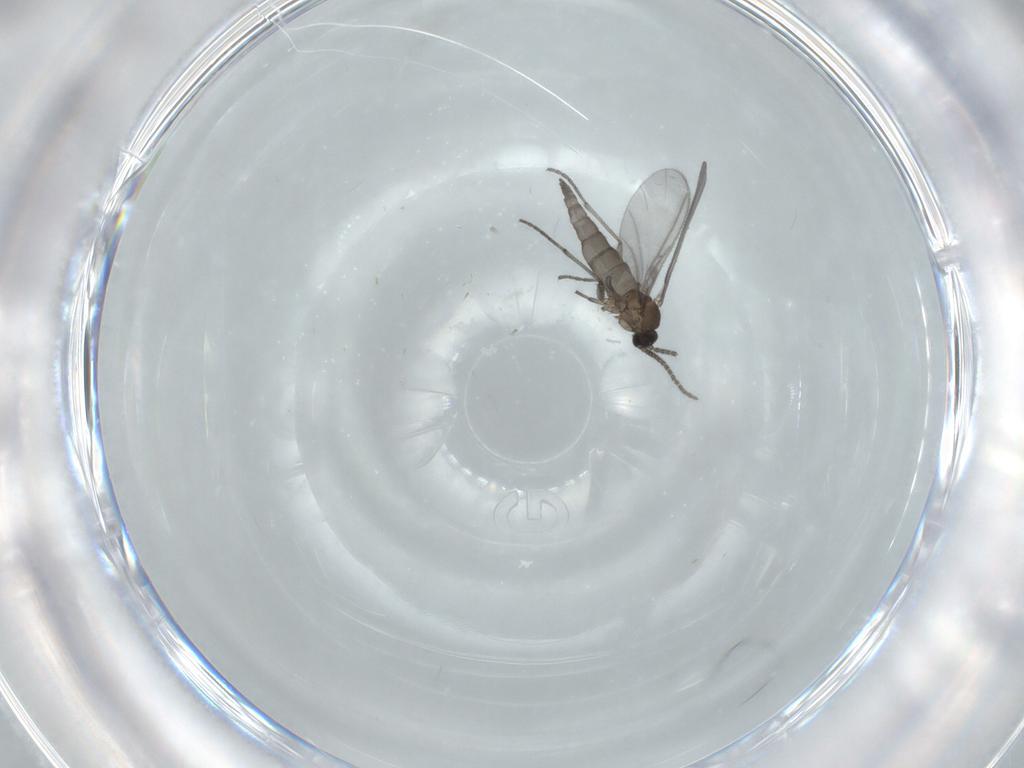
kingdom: Animalia
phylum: Arthropoda
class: Insecta
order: Diptera
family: Sciaridae
